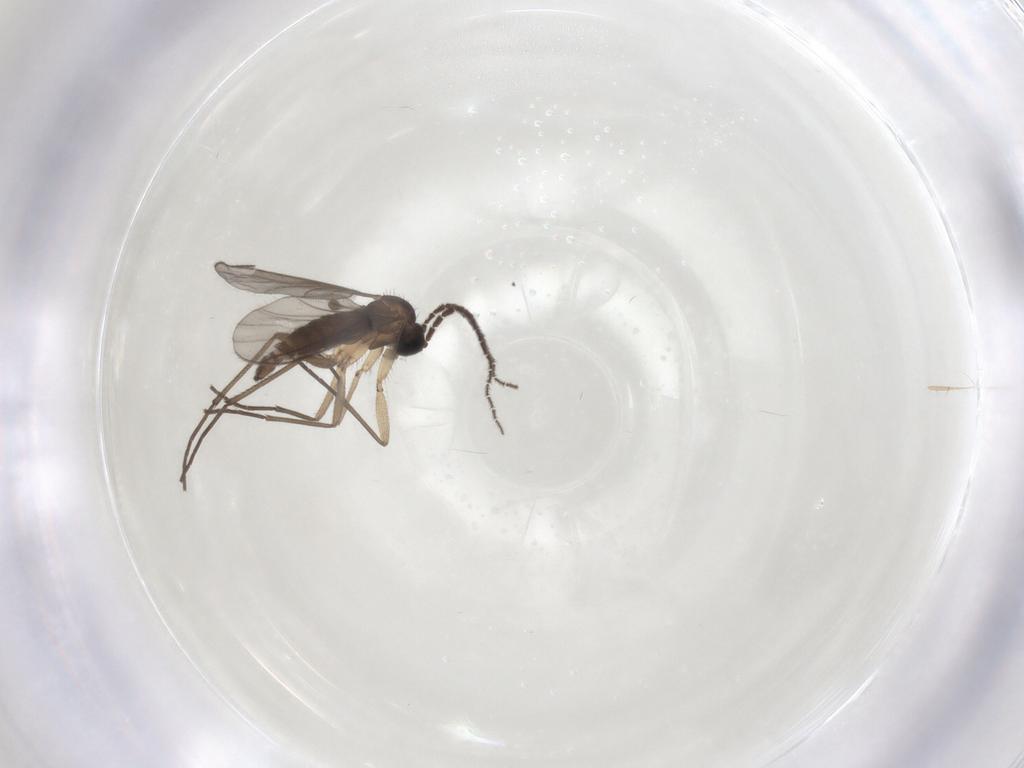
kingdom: Animalia
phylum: Arthropoda
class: Insecta
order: Diptera
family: Sciaridae
